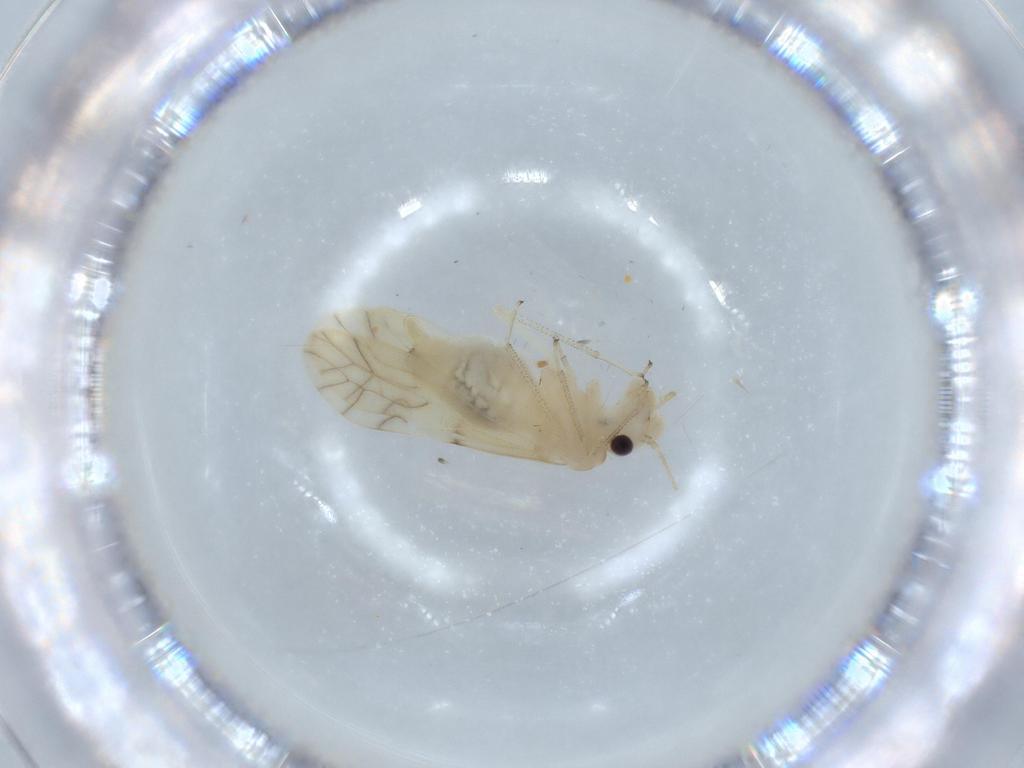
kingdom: Animalia
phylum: Arthropoda
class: Insecta
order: Psocodea
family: Caeciliusidae
